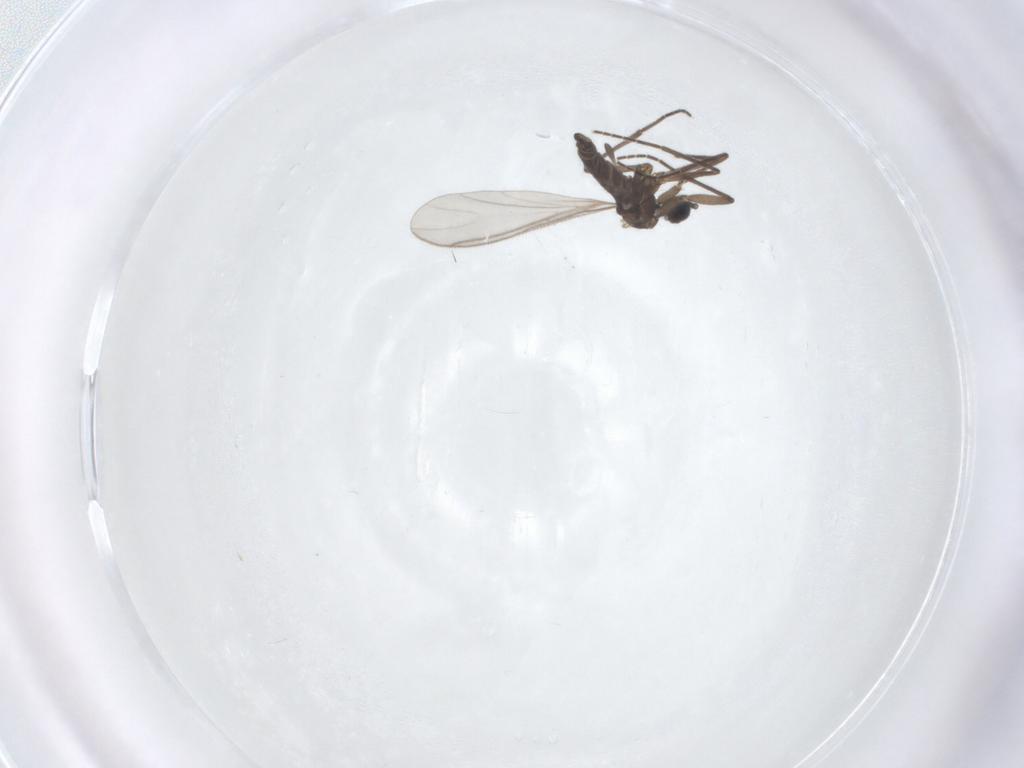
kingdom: Animalia
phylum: Arthropoda
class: Insecta
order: Diptera
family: Sciaridae
